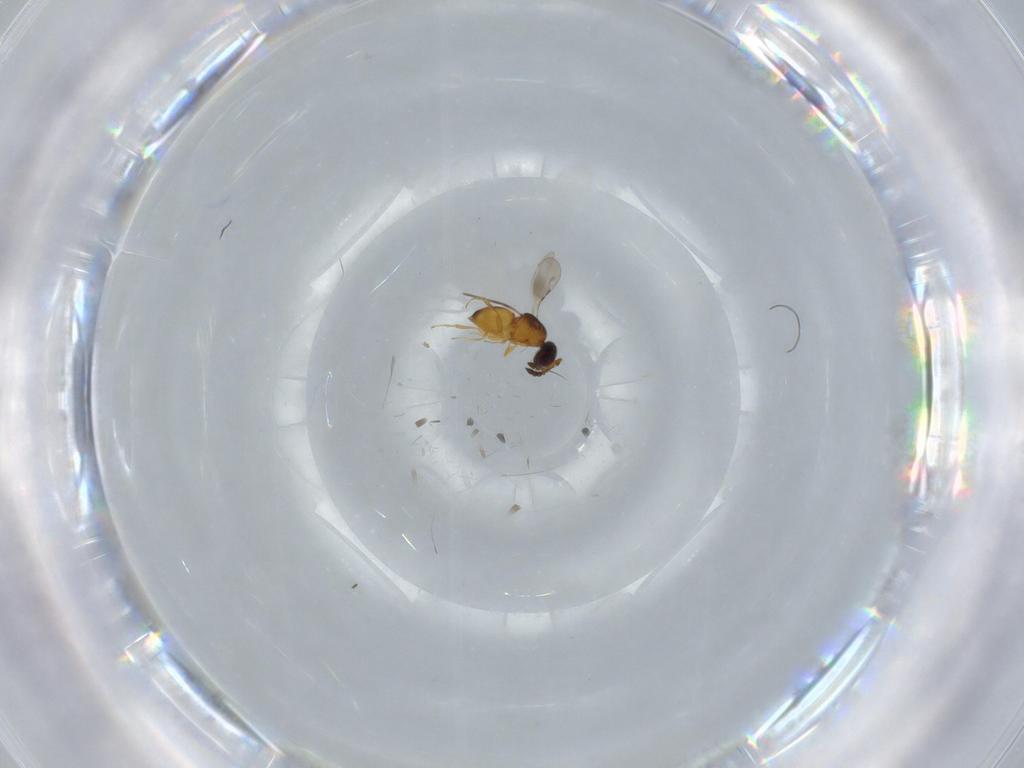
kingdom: Animalia
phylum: Arthropoda
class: Insecta
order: Hymenoptera
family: Ceraphronidae
